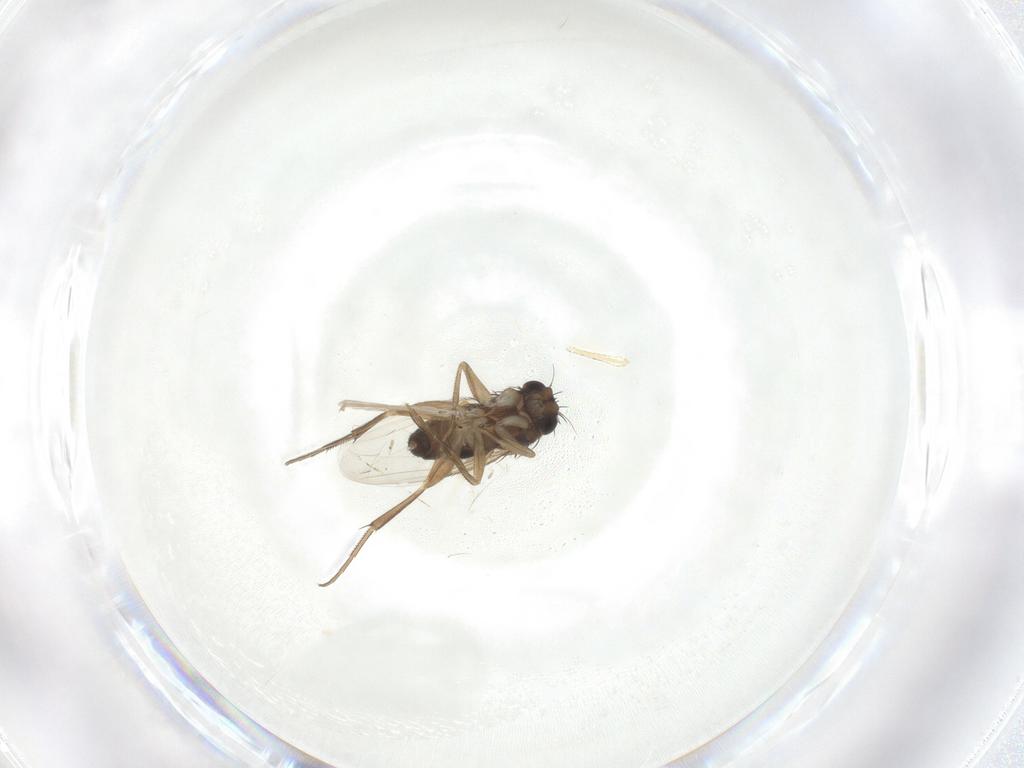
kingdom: Animalia
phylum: Arthropoda
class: Insecta
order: Diptera
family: Phoridae
